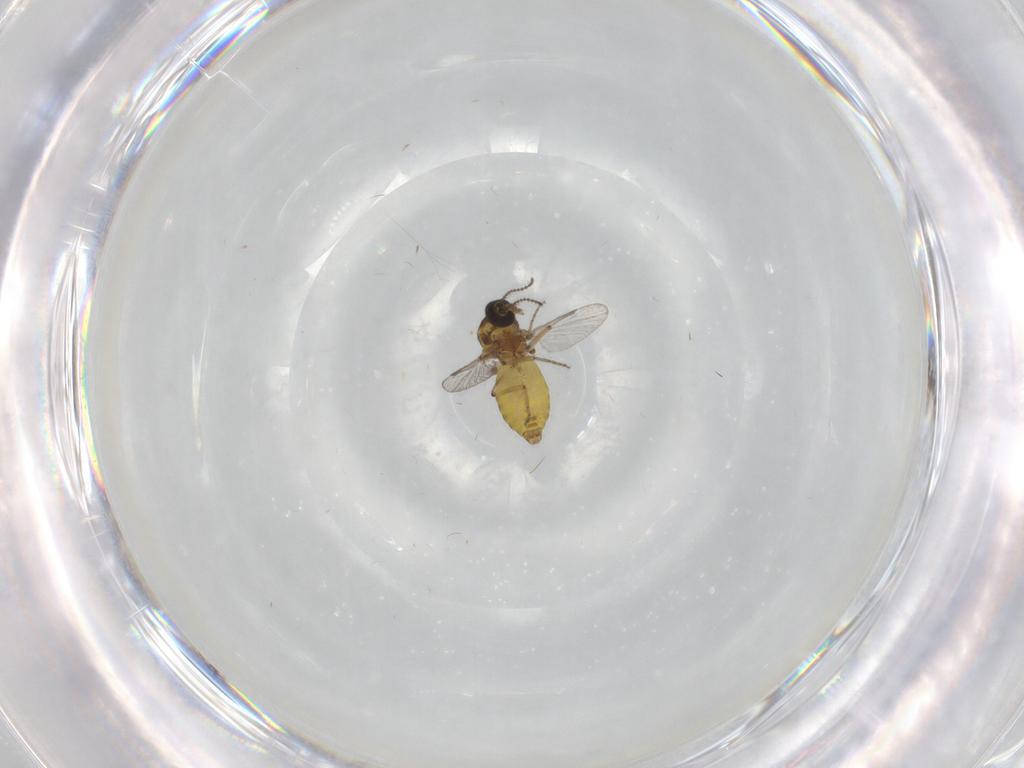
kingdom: Animalia
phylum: Arthropoda
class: Insecta
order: Diptera
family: Ceratopogonidae
